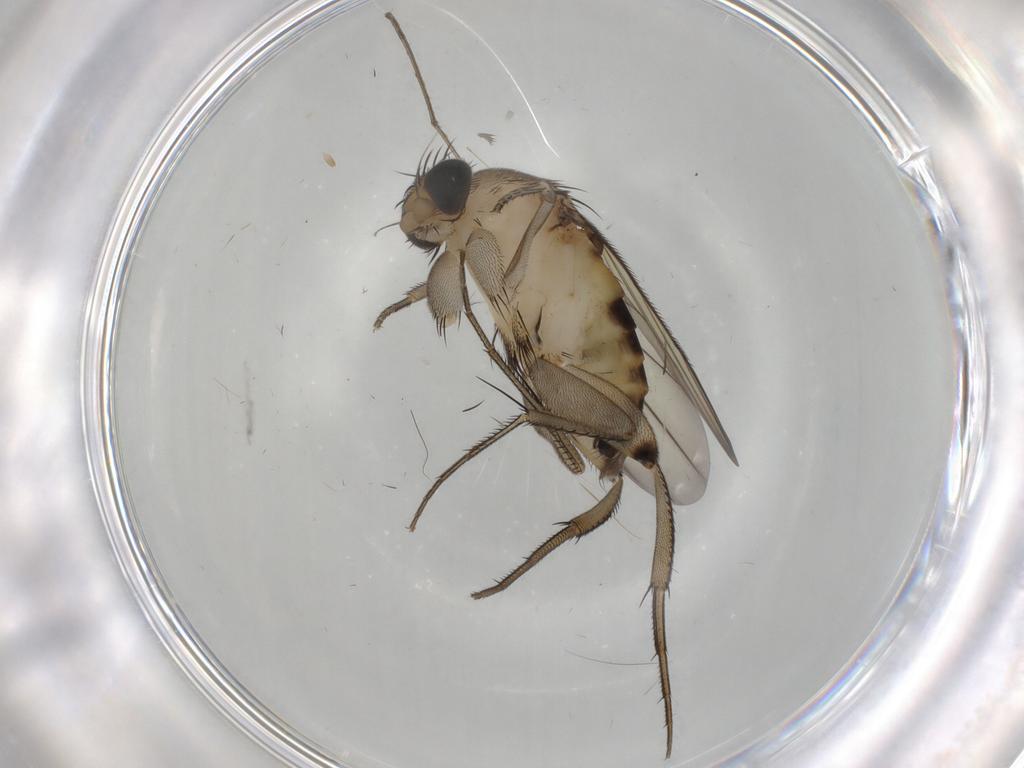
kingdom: Animalia
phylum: Arthropoda
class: Insecta
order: Diptera
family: Phoridae
